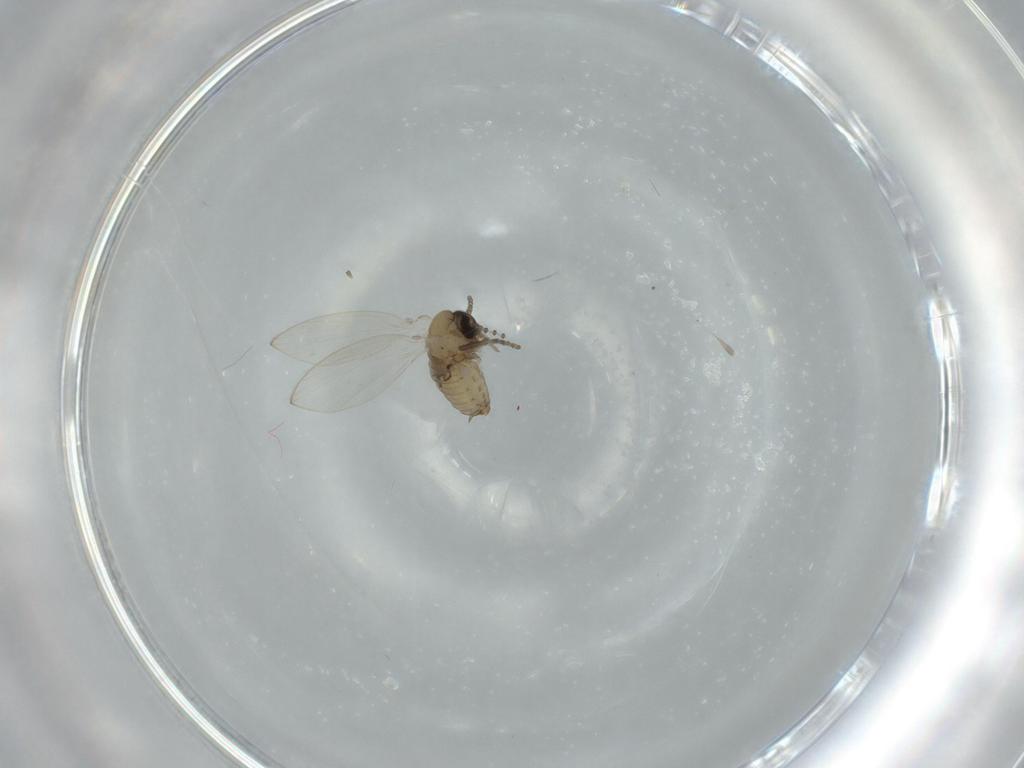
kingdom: Animalia
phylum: Arthropoda
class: Insecta
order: Diptera
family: Psychodidae
